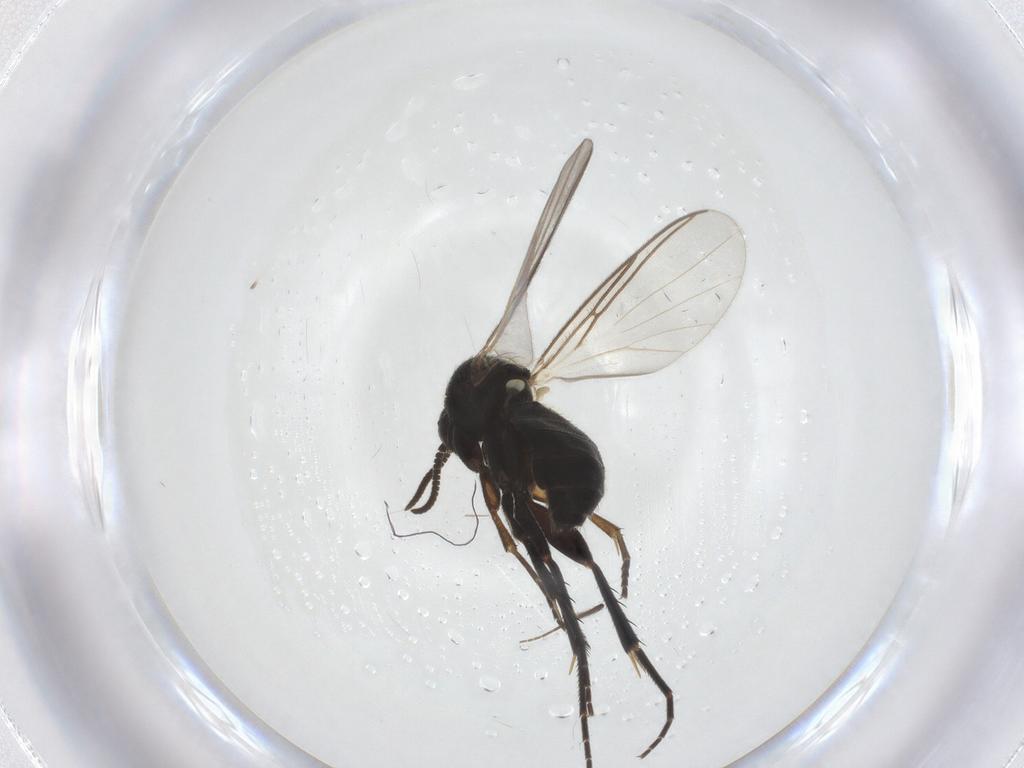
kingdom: Animalia
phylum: Arthropoda
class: Insecta
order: Diptera
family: Mycetophilidae
